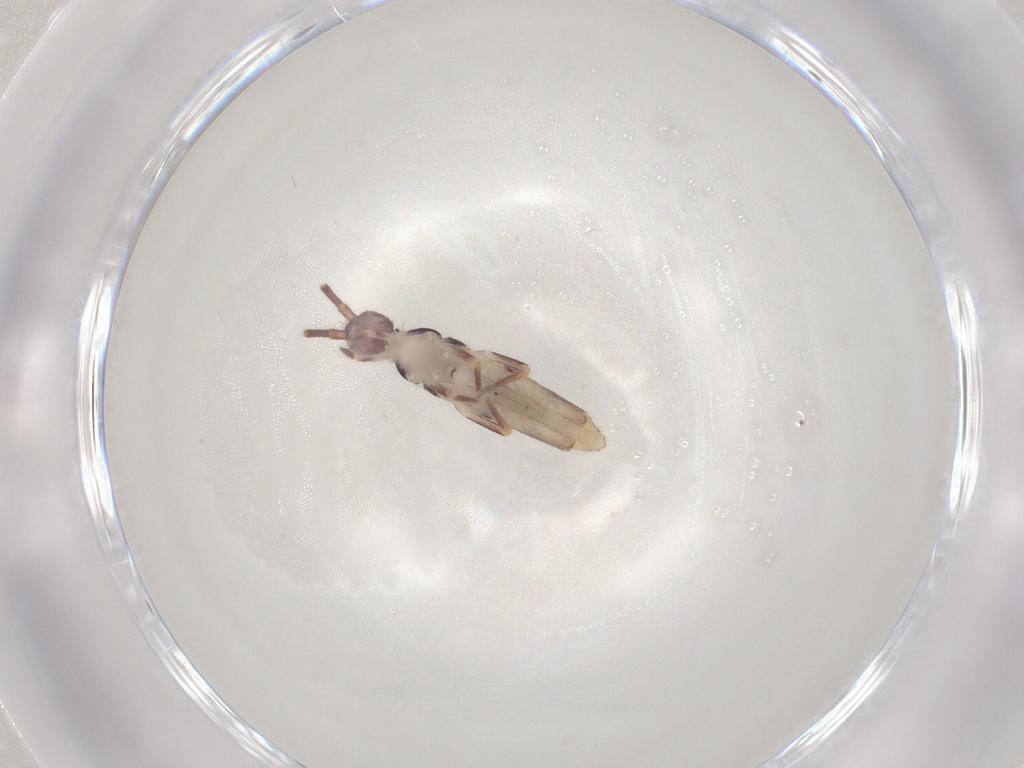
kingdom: Animalia
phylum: Arthropoda
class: Collembola
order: Entomobryomorpha
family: Entomobryidae
